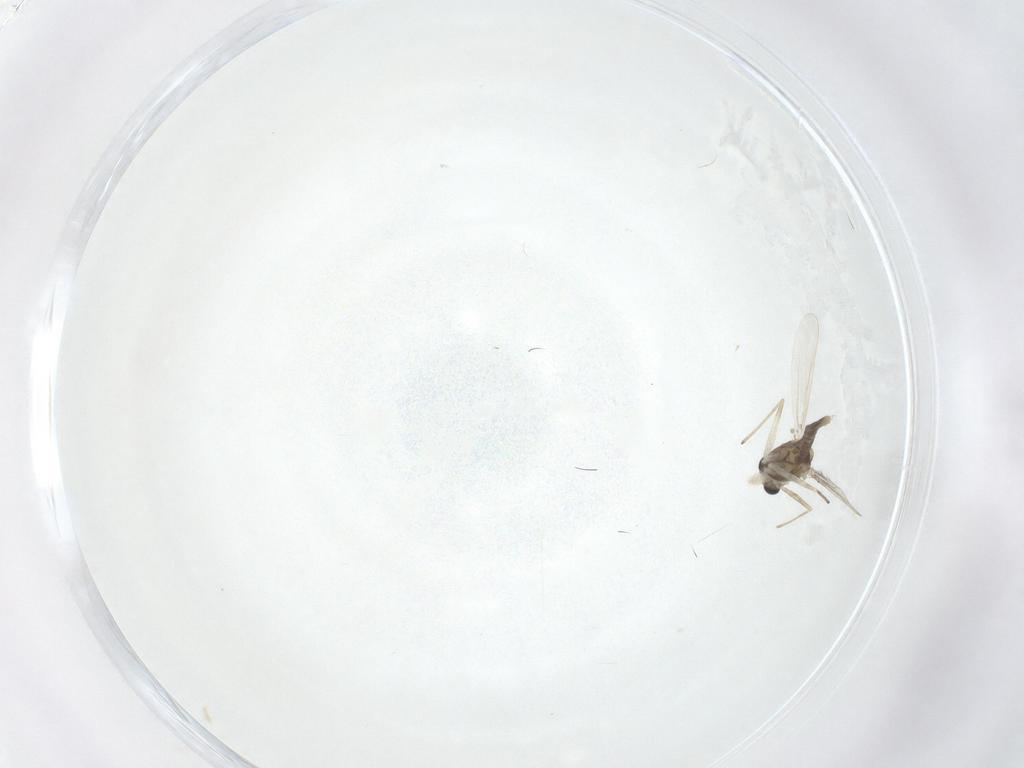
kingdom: Animalia
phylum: Arthropoda
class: Insecta
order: Diptera
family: Chironomidae
